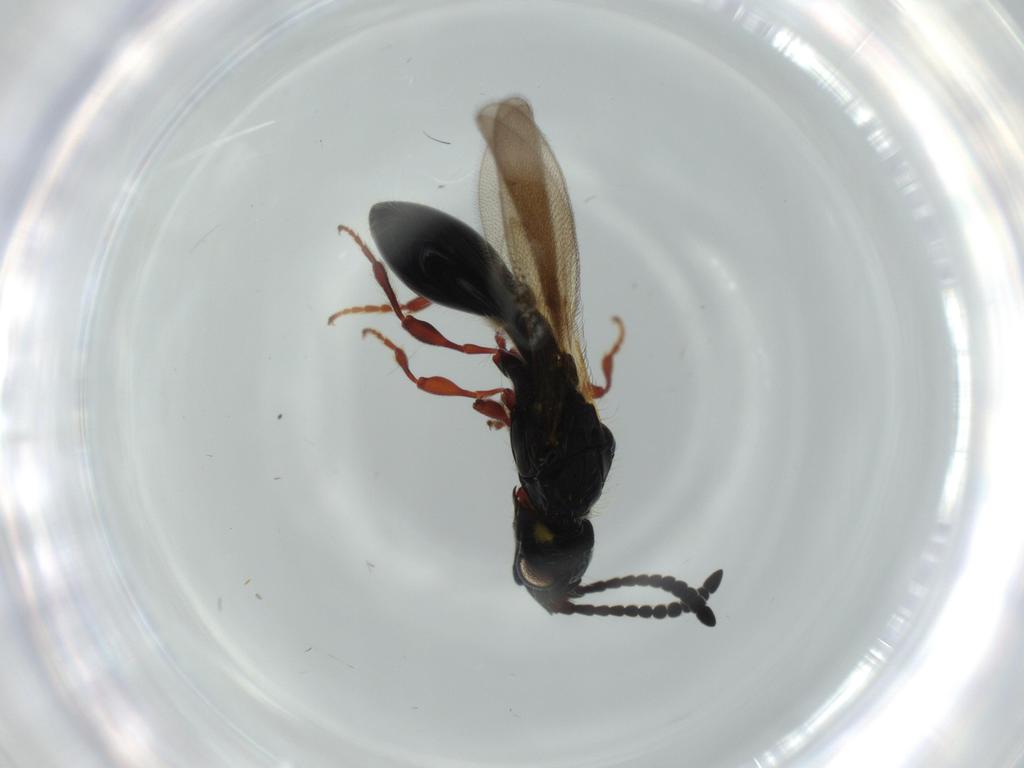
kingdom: Animalia
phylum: Arthropoda
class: Insecta
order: Hymenoptera
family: Diapriidae
